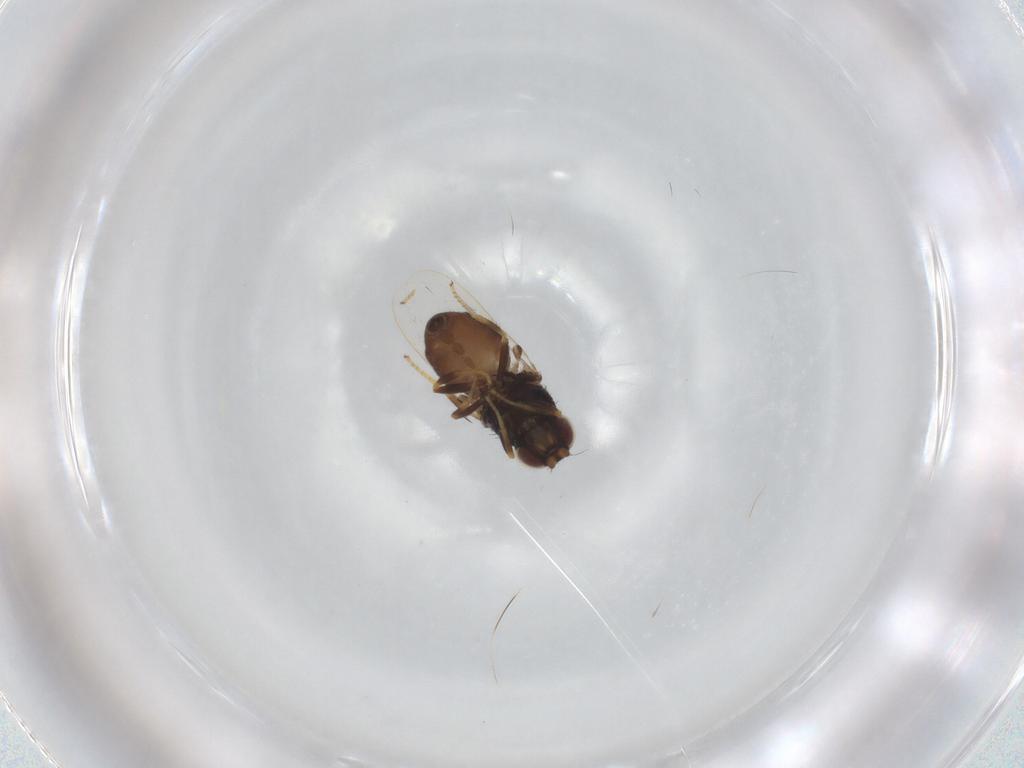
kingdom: Animalia
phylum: Arthropoda
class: Insecta
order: Diptera
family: Chloropidae
